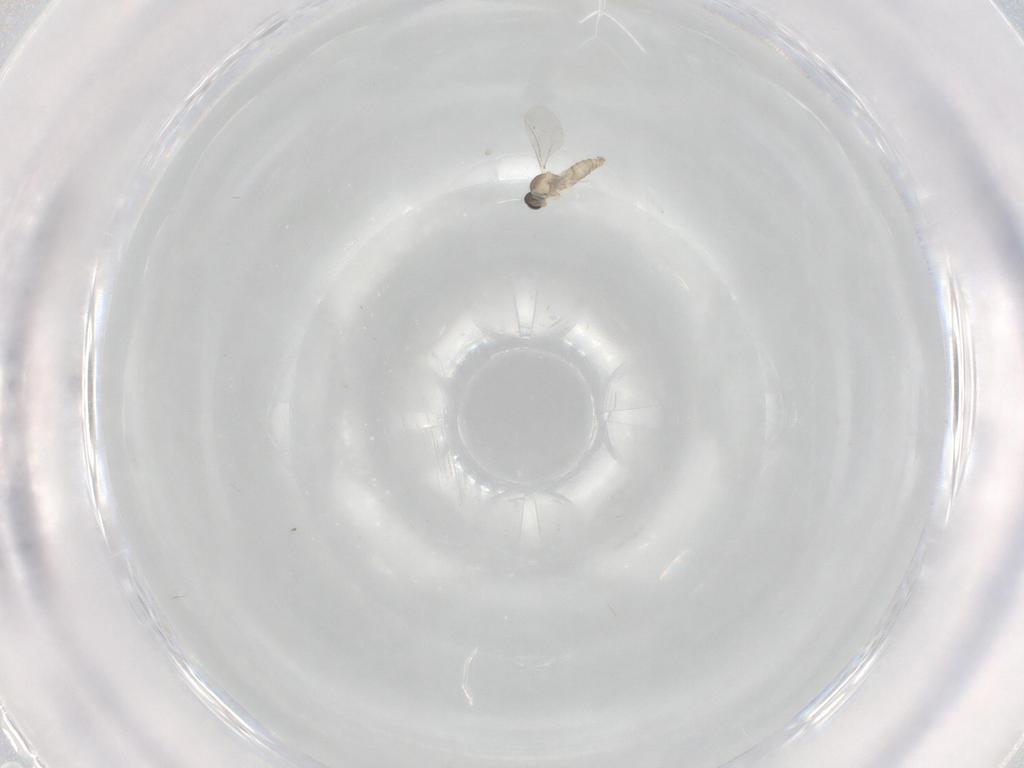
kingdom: Animalia
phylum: Arthropoda
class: Insecta
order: Diptera
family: Cecidomyiidae
